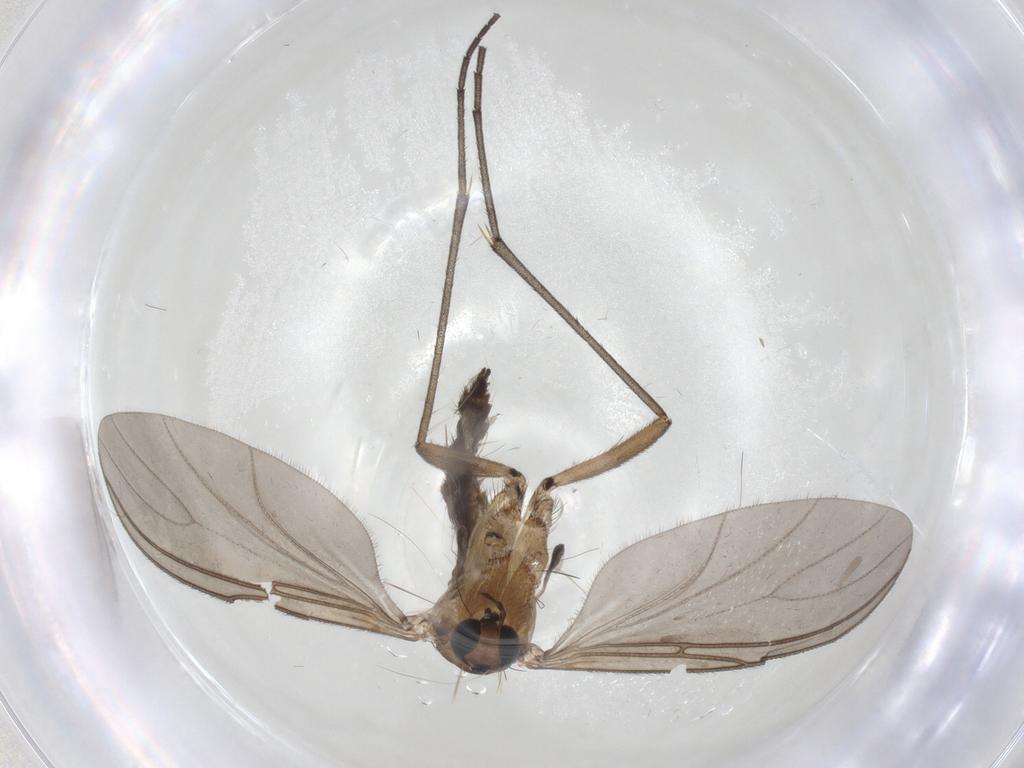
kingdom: Animalia
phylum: Arthropoda
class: Insecta
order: Diptera
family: Sciaridae
